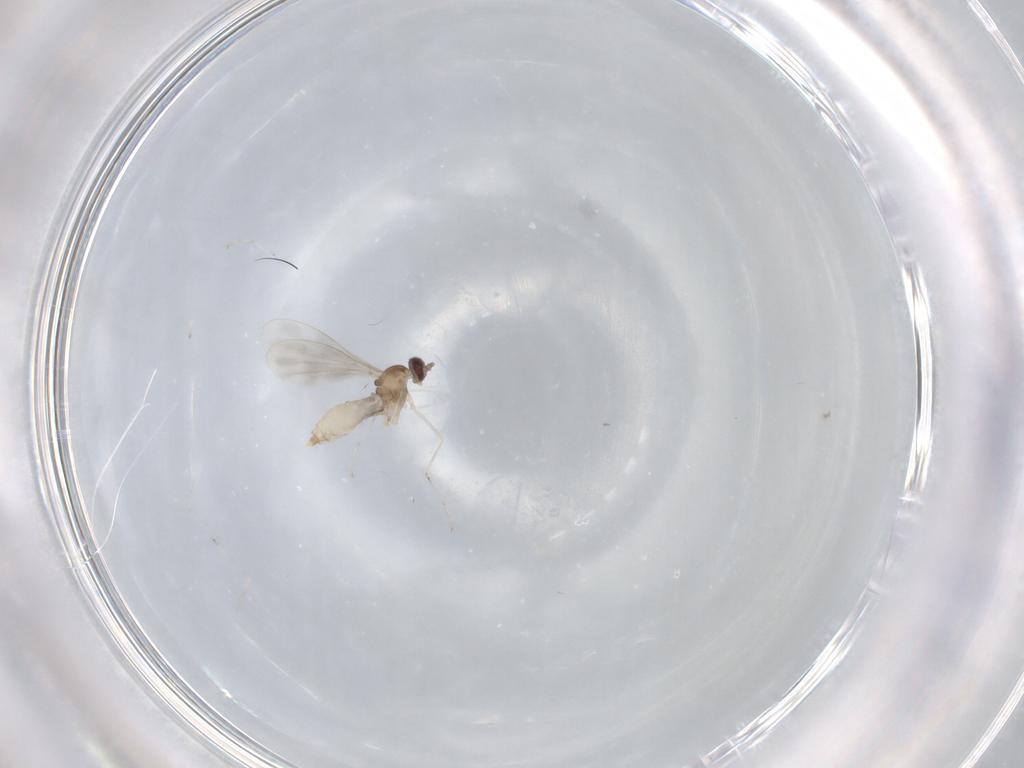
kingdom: Animalia
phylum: Arthropoda
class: Insecta
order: Diptera
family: Cecidomyiidae
